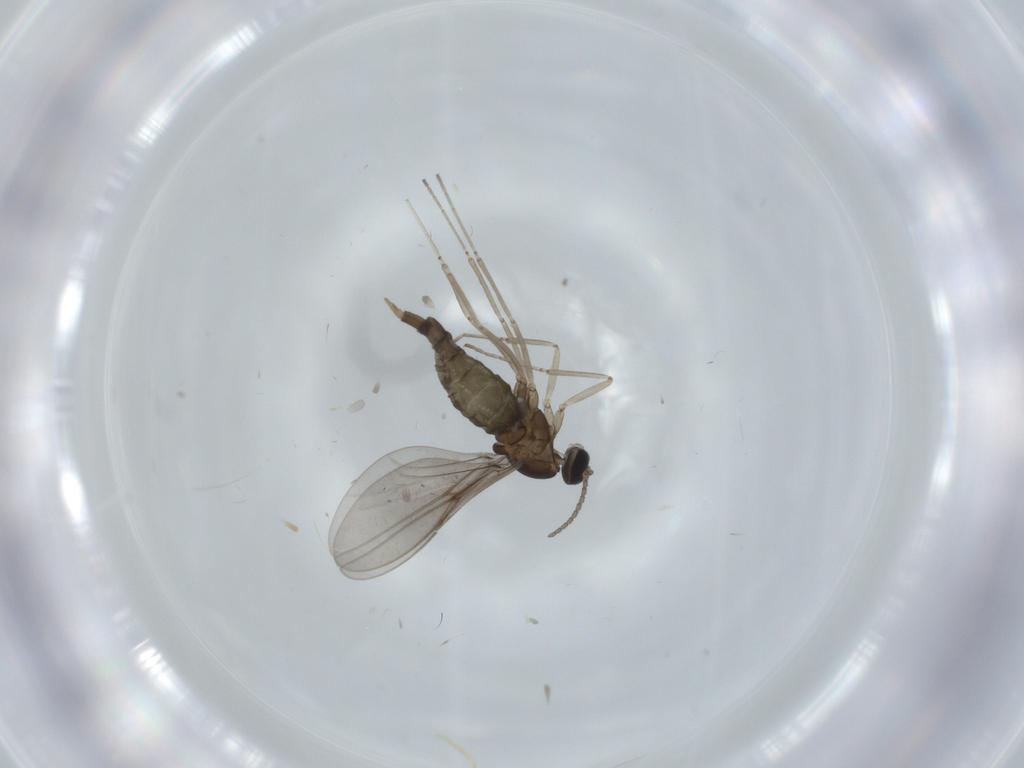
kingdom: Animalia
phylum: Arthropoda
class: Insecta
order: Diptera
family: Cecidomyiidae
